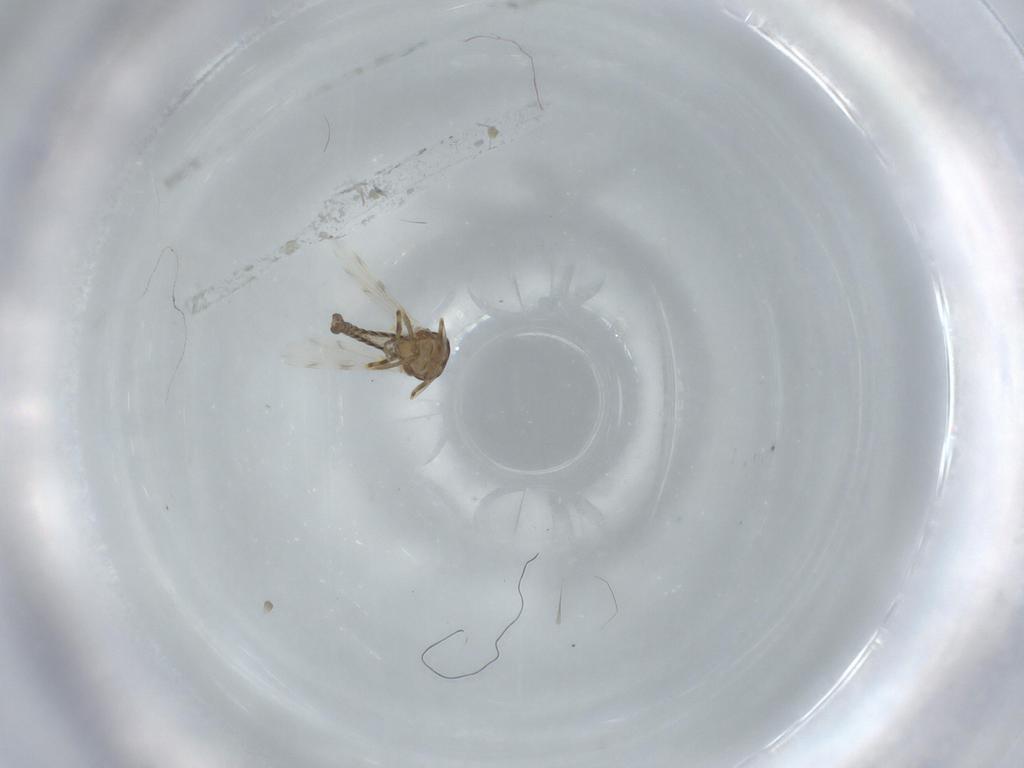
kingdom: Animalia
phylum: Arthropoda
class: Insecta
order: Diptera
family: Ceratopogonidae
